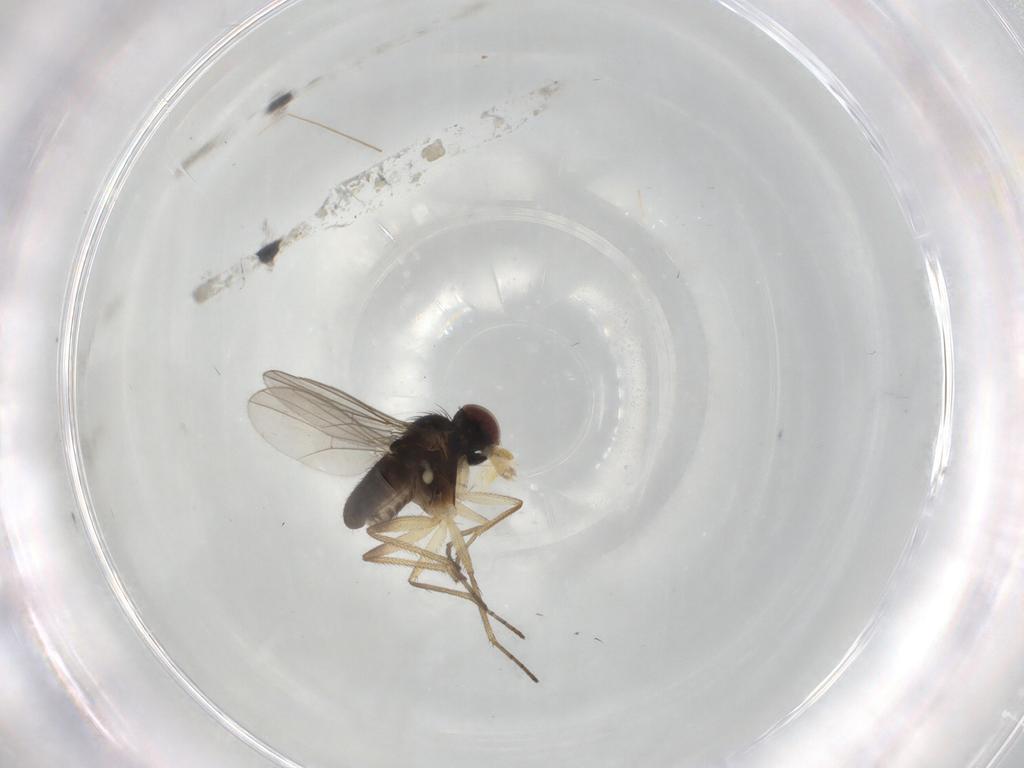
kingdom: Animalia
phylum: Arthropoda
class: Insecta
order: Diptera
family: Dolichopodidae
